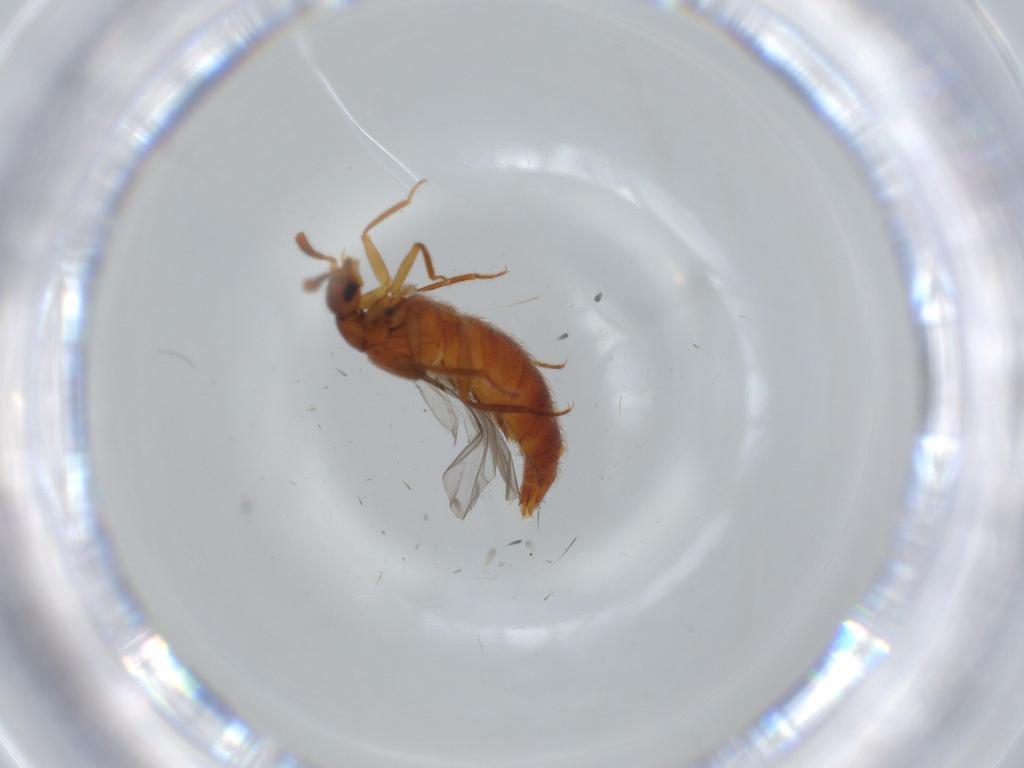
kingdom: Animalia
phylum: Arthropoda
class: Insecta
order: Coleoptera
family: Staphylinidae
